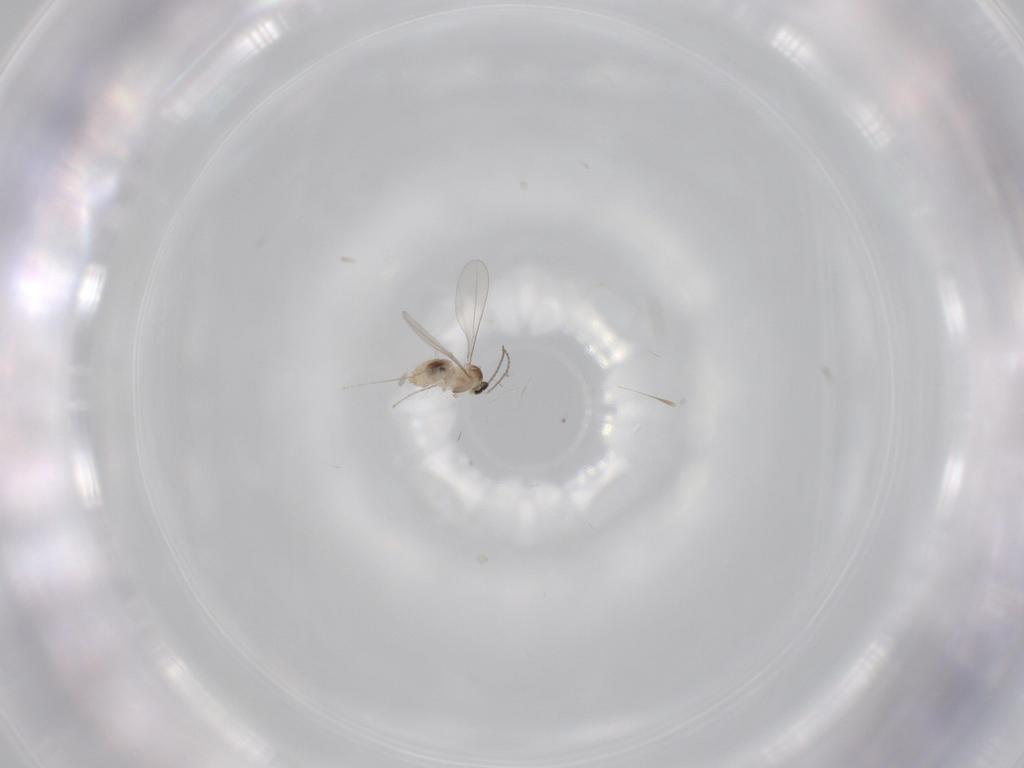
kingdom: Animalia
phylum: Arthropoda
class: Insecta
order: Diptera
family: Cecidomyiidae
